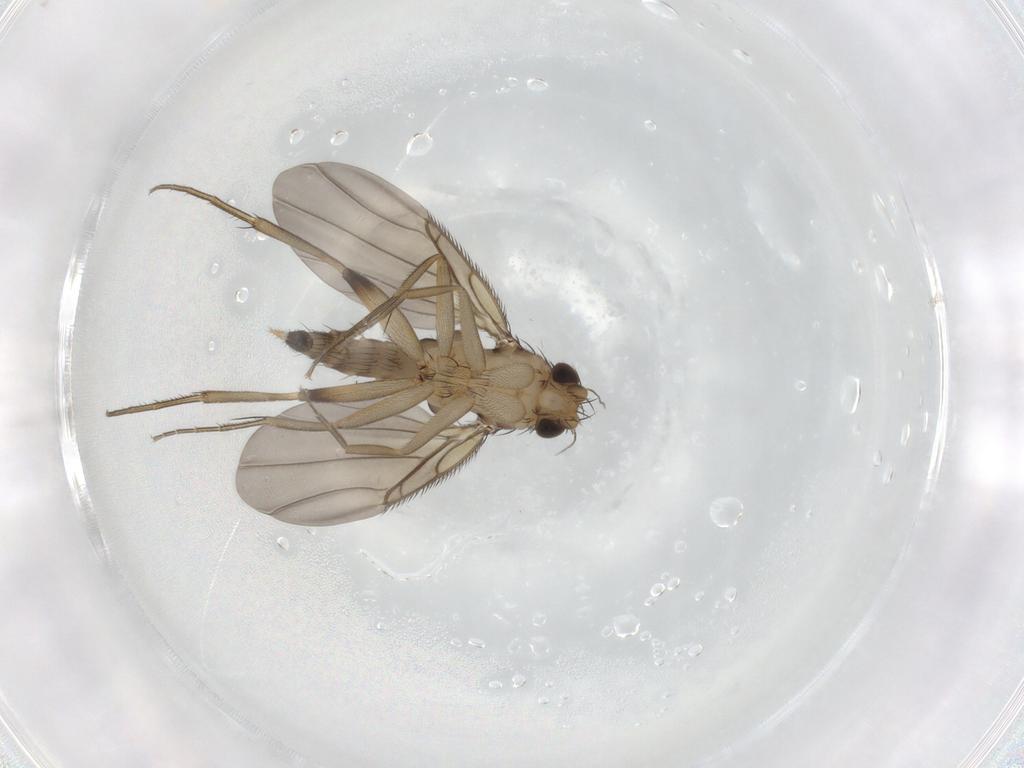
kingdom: Animalia
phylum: Arthropoda
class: Insecta
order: Diptera
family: Phoridae
